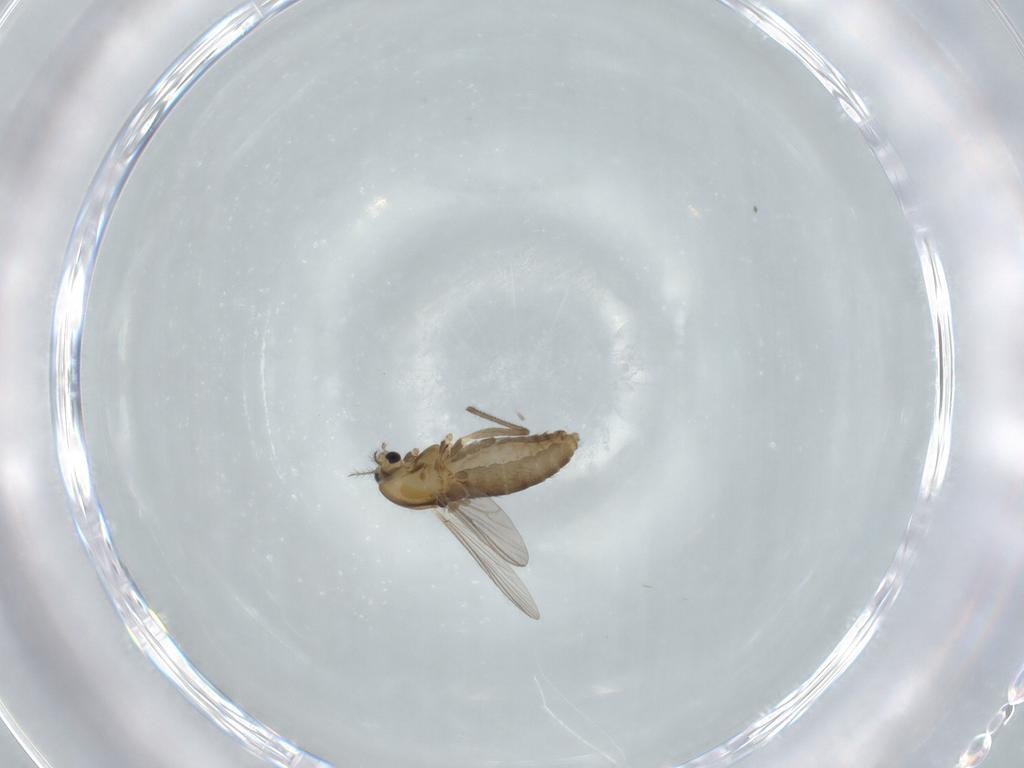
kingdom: Animalia
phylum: Arthropoda
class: Insecta
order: Diptera
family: Chironomidae
